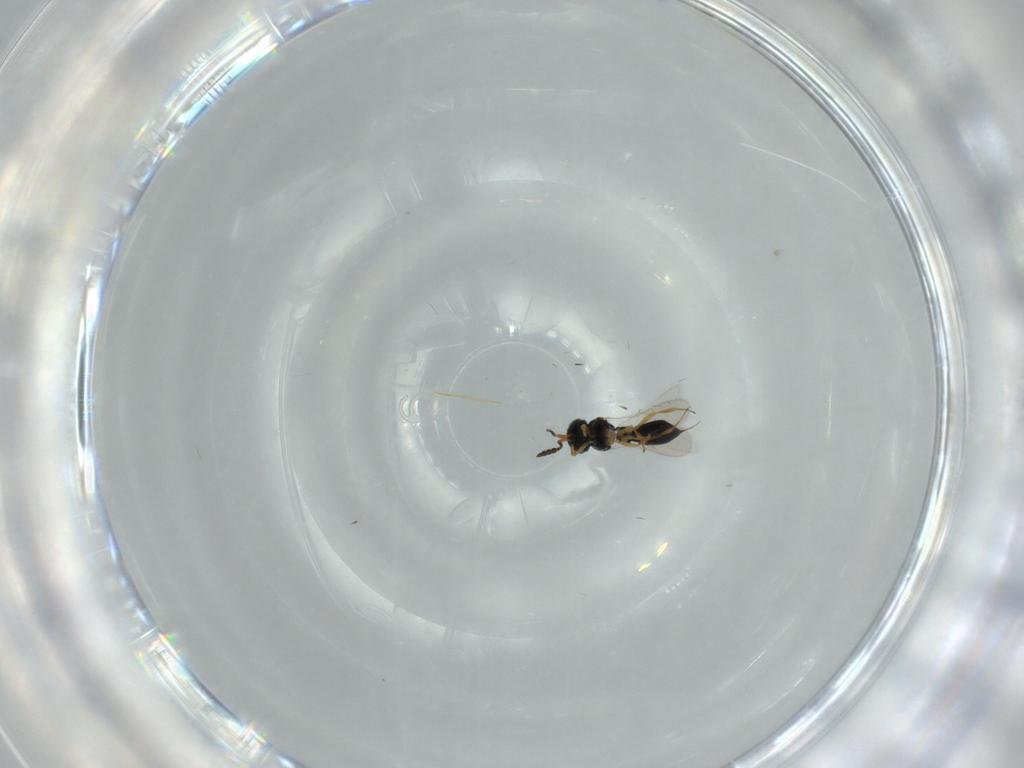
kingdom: Animalia
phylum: Arthropoda
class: Insecta
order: Hymenoptera
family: Scelionidae
